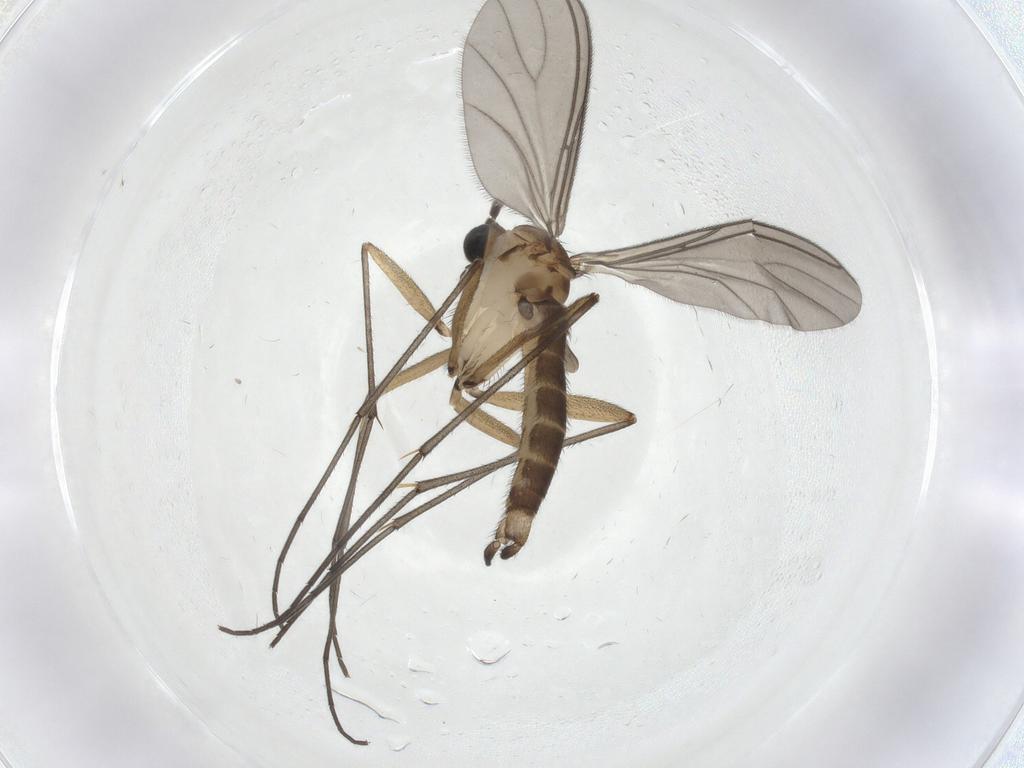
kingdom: Animalia
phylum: Arthropoda
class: Insecta
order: Diptera
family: Sciaridae
